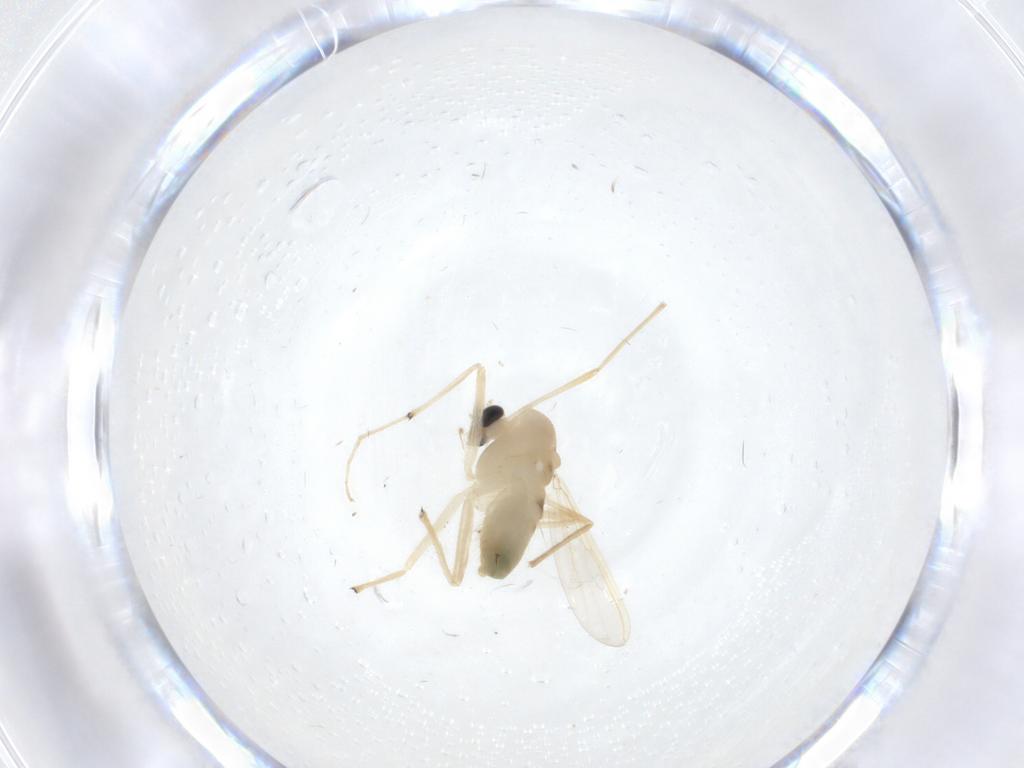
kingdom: Animalia
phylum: Arthropoda
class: Insecta
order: Diptera
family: Chironomidae
